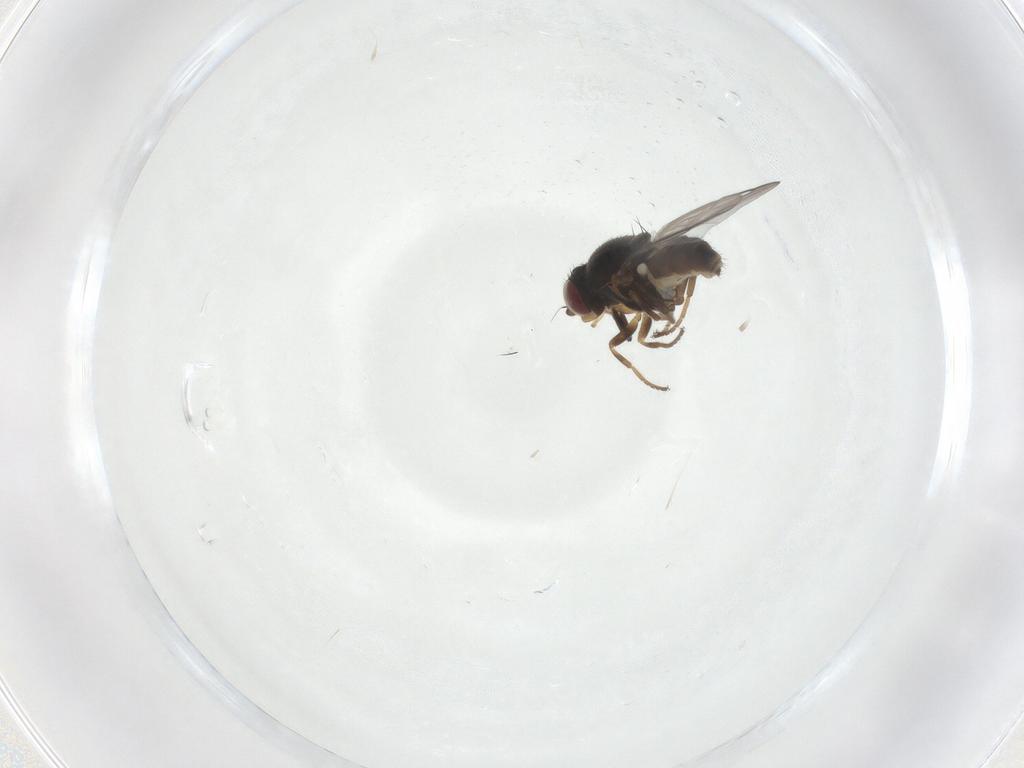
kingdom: Animalia
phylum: Arthropoda
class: Insecta
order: Diptera
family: Chloropidae
